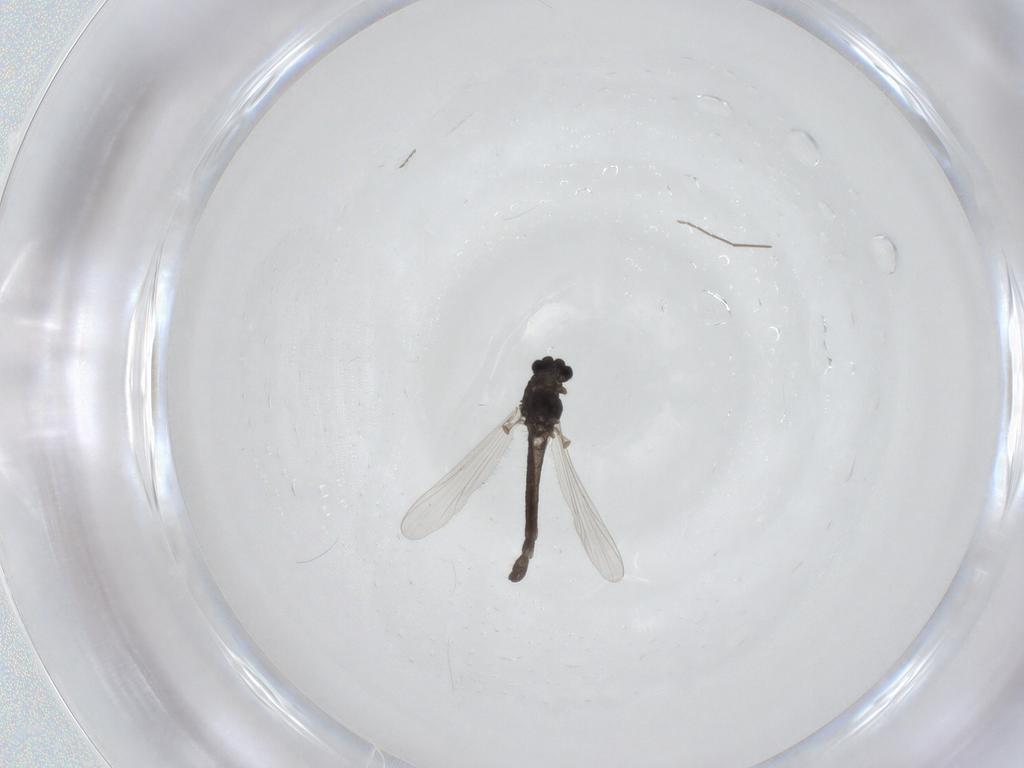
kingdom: Animalia
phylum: Arthropoda
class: Insecta
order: Diptera
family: Chironomidae
